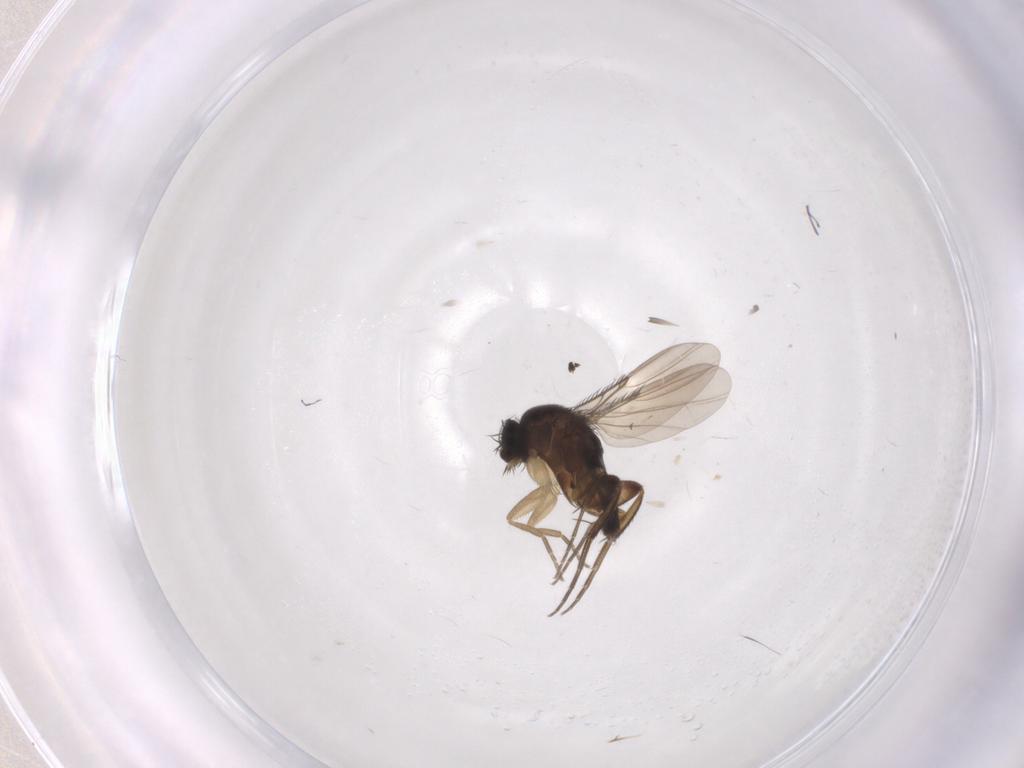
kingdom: Animalia
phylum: Arthropoda
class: Insecta
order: Diptera
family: Phoridae
